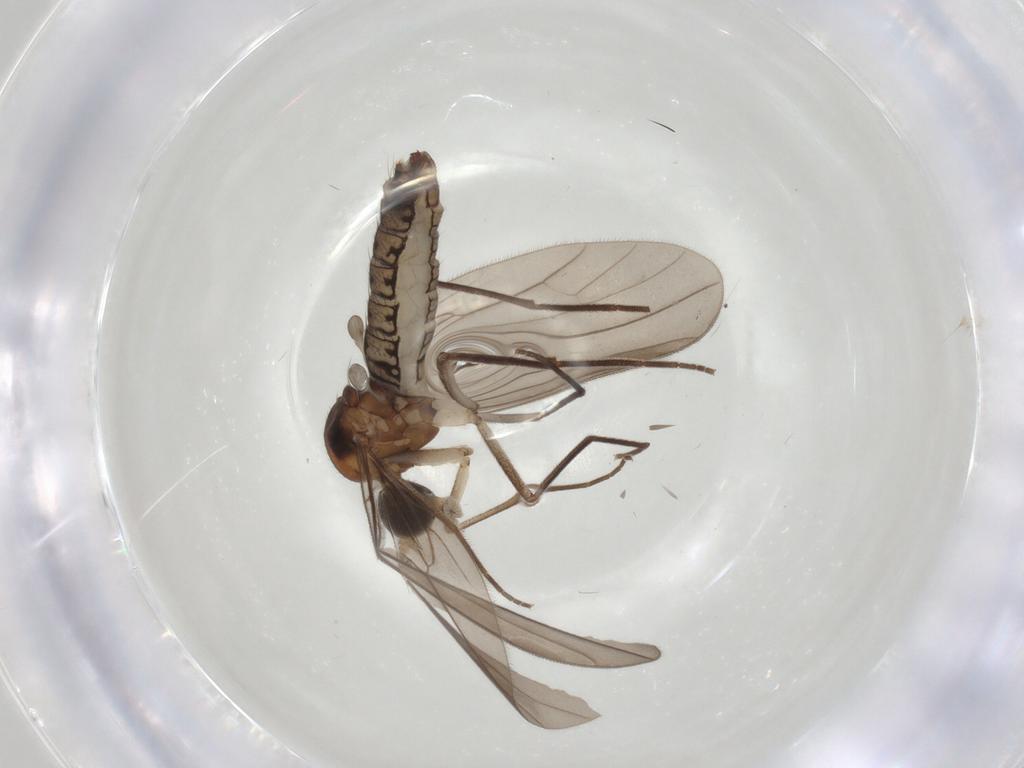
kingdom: Animalia
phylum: Arthropoda
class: Insecta
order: Diptera
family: Empididae
